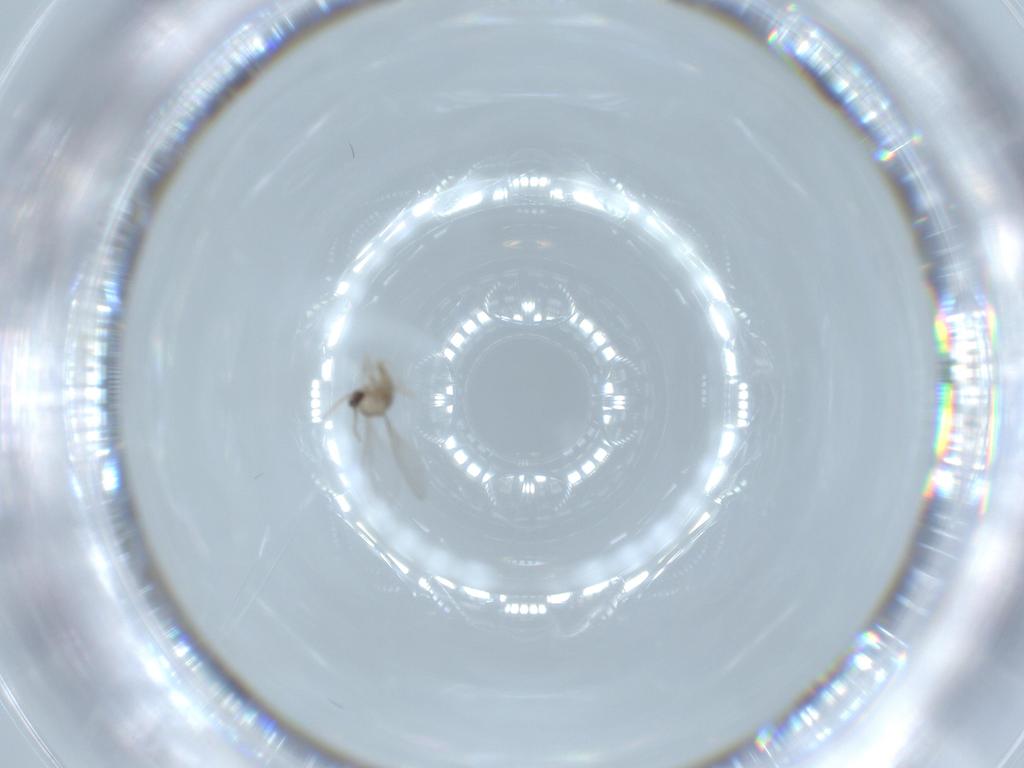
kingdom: Animalia
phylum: Arthropoda
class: Insecta
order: Diptera
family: Cecidomyiidae
